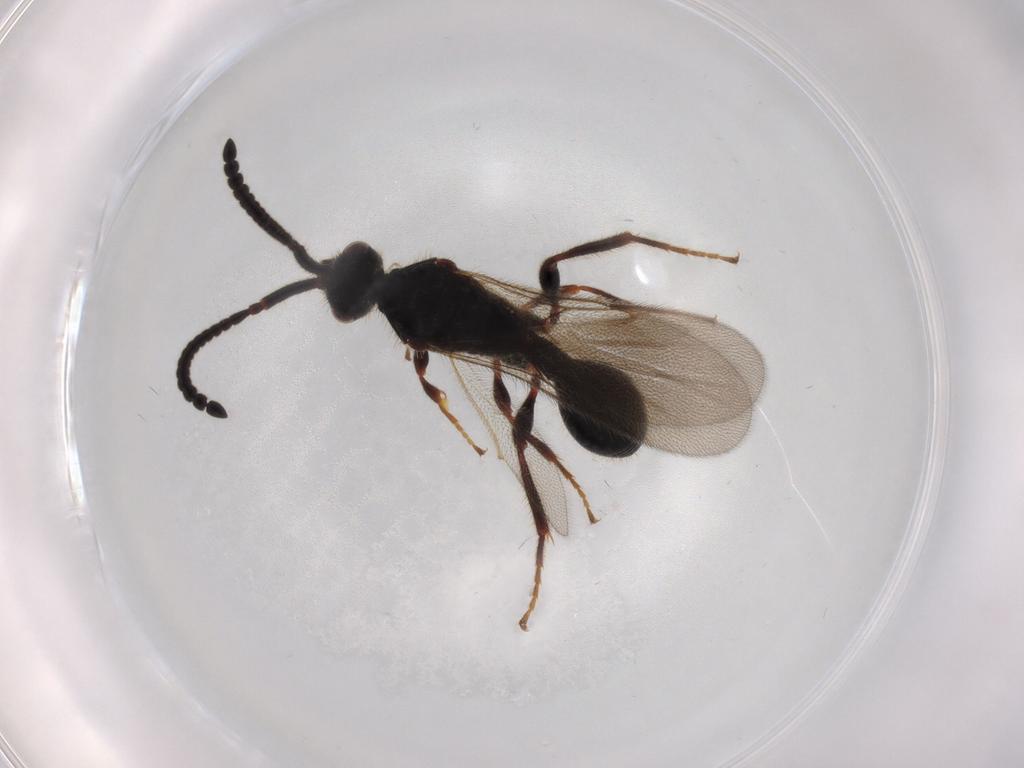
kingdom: Animalia
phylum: Arthropoda
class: Insecta
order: Hymenoptera
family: Diapriidae
